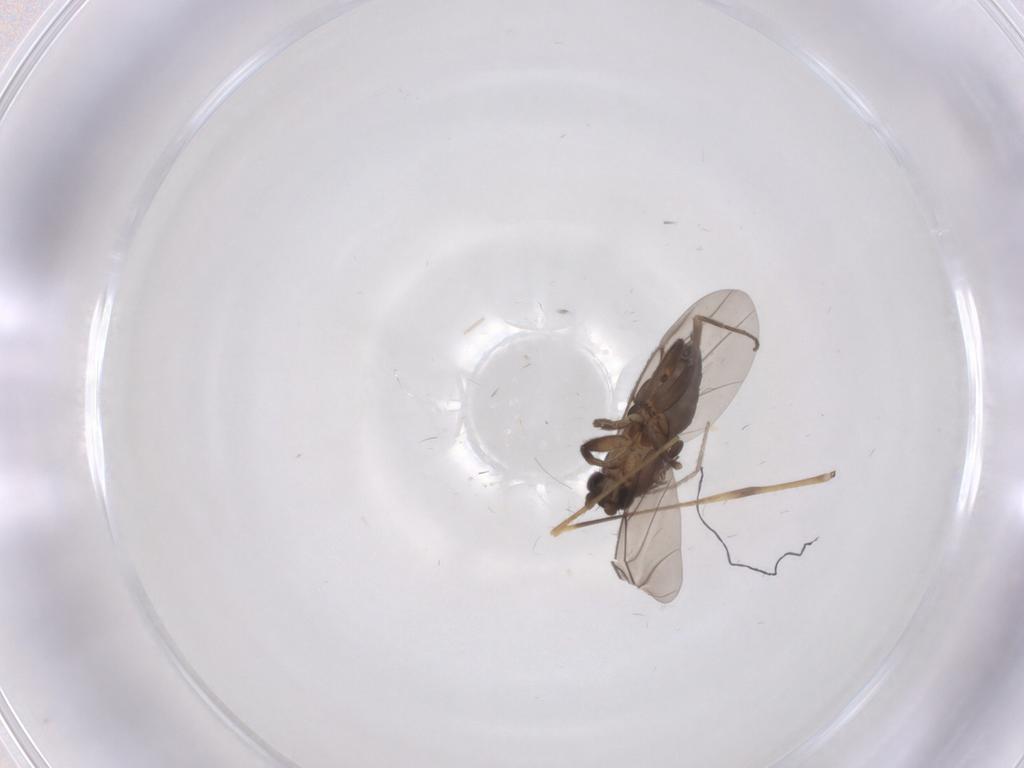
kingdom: Animalia
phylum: Arthropoda
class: Insecta
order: Diptera
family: Limoniidae
